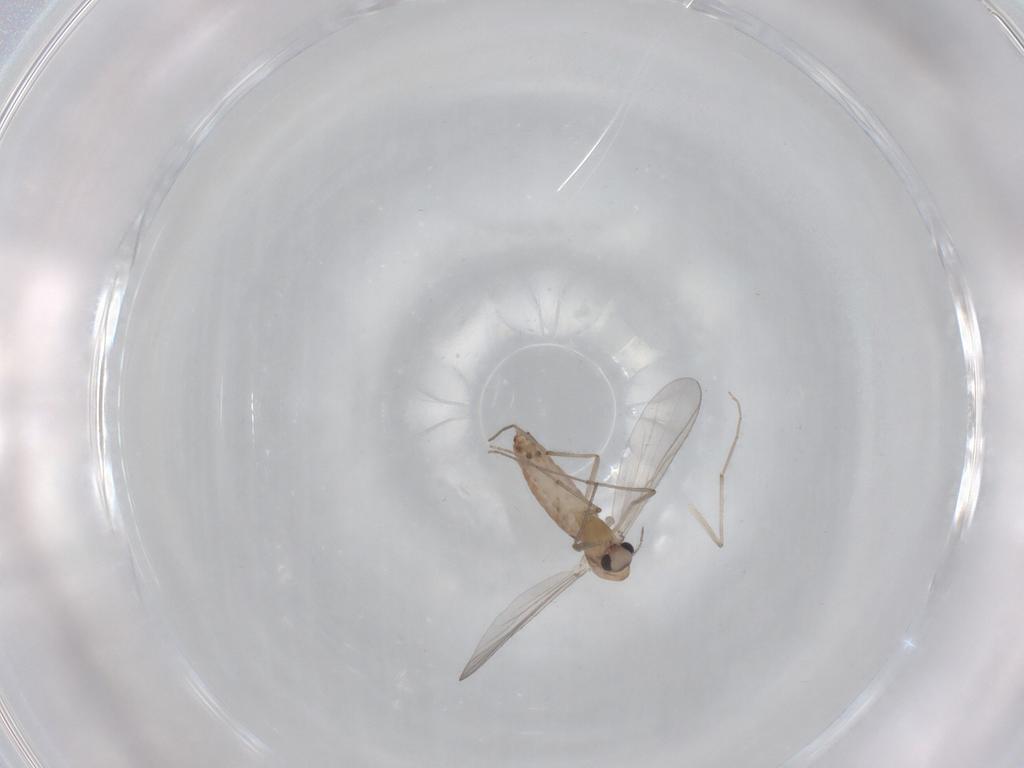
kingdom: Animalia
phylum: Arthropoda
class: Insecta
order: Diptera
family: Chironomidae
